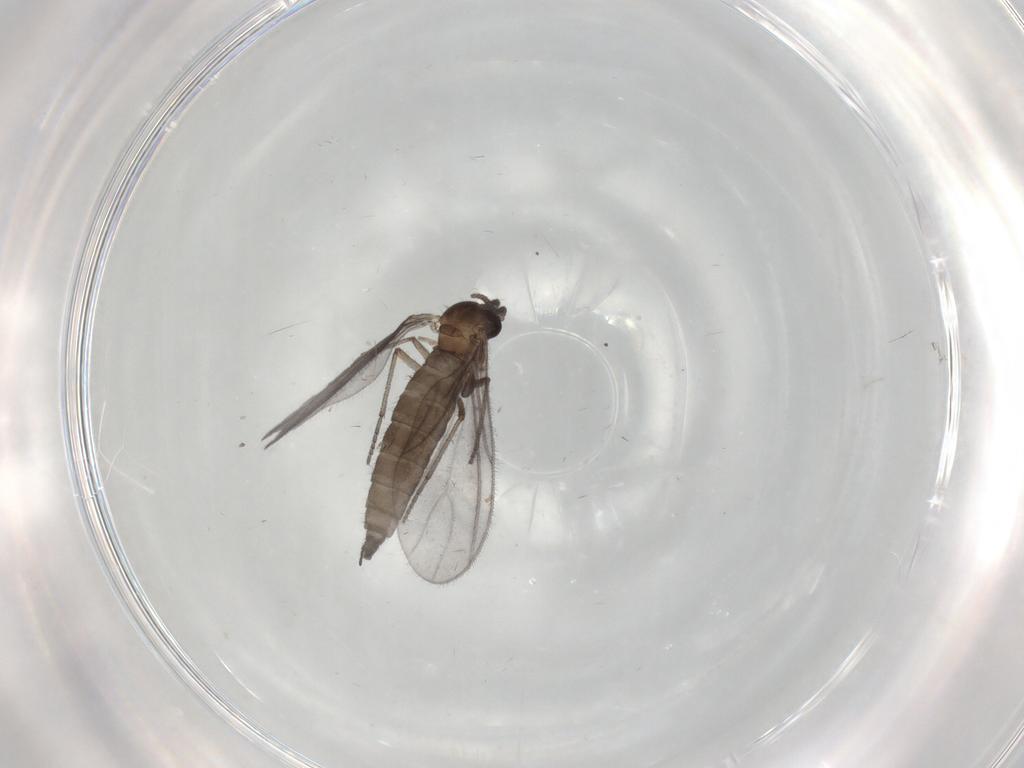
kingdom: Animalia
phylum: Arthropoda
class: Insecta
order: Diptera
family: Sciaridae
